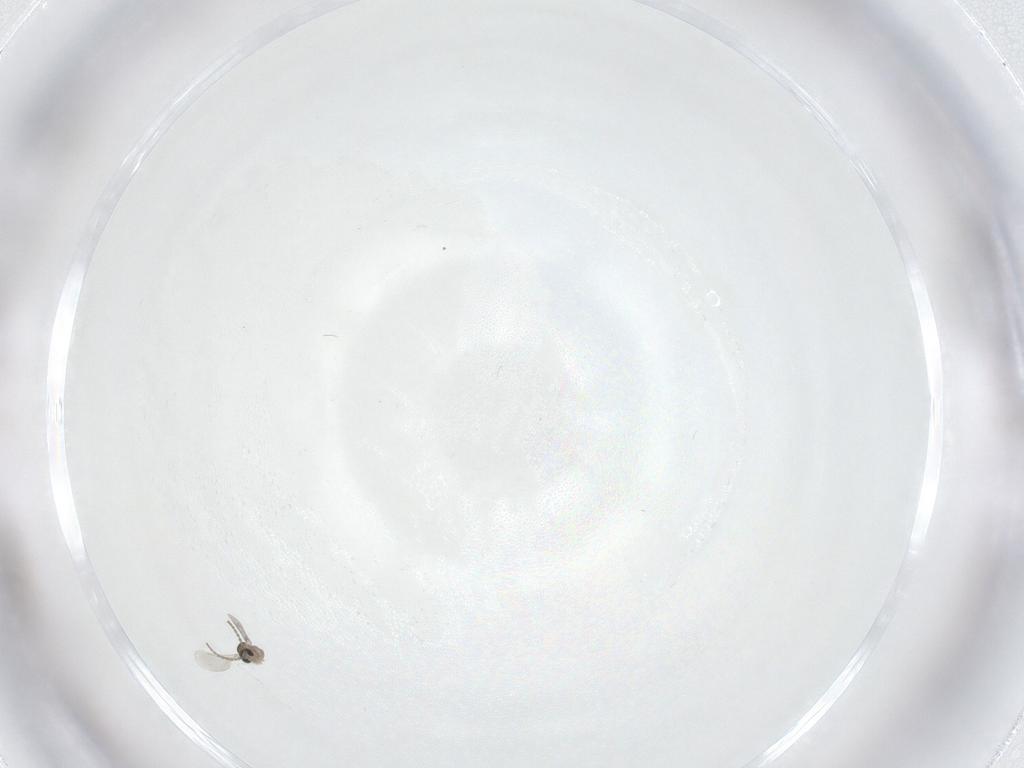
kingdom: Animalia
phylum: Arthropoda
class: Insecta
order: Diptera
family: Cecidomyiidae
